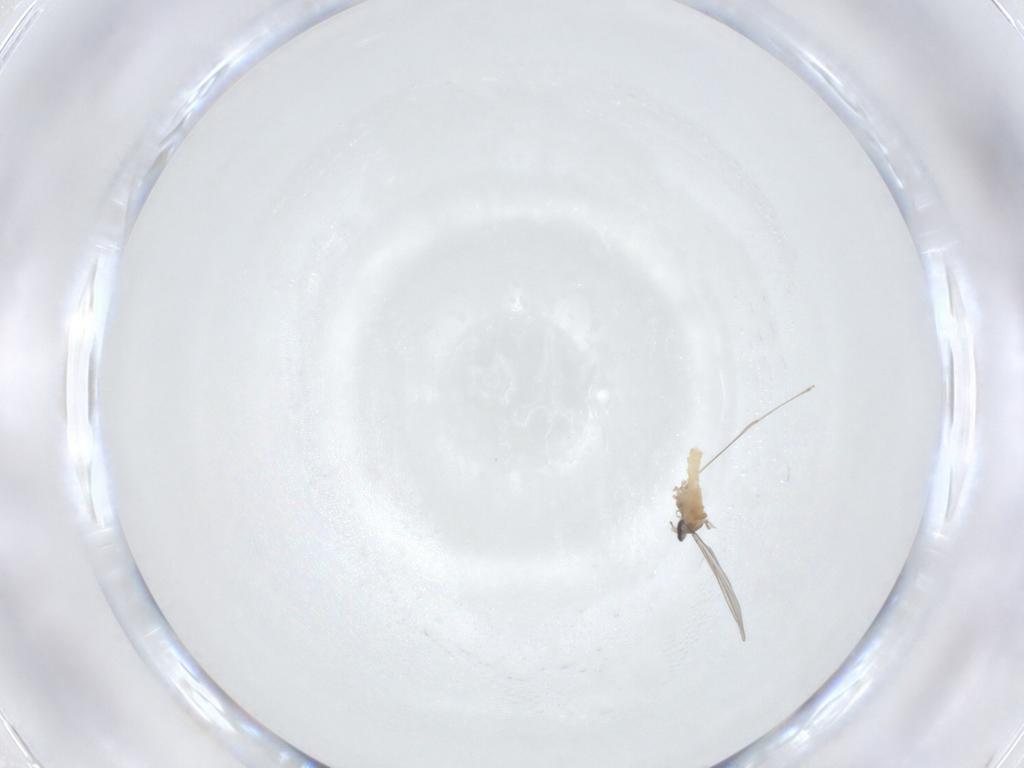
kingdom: Animalia
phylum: Arthropoda
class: Insecta
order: Diptera
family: Cecidomyiidae
